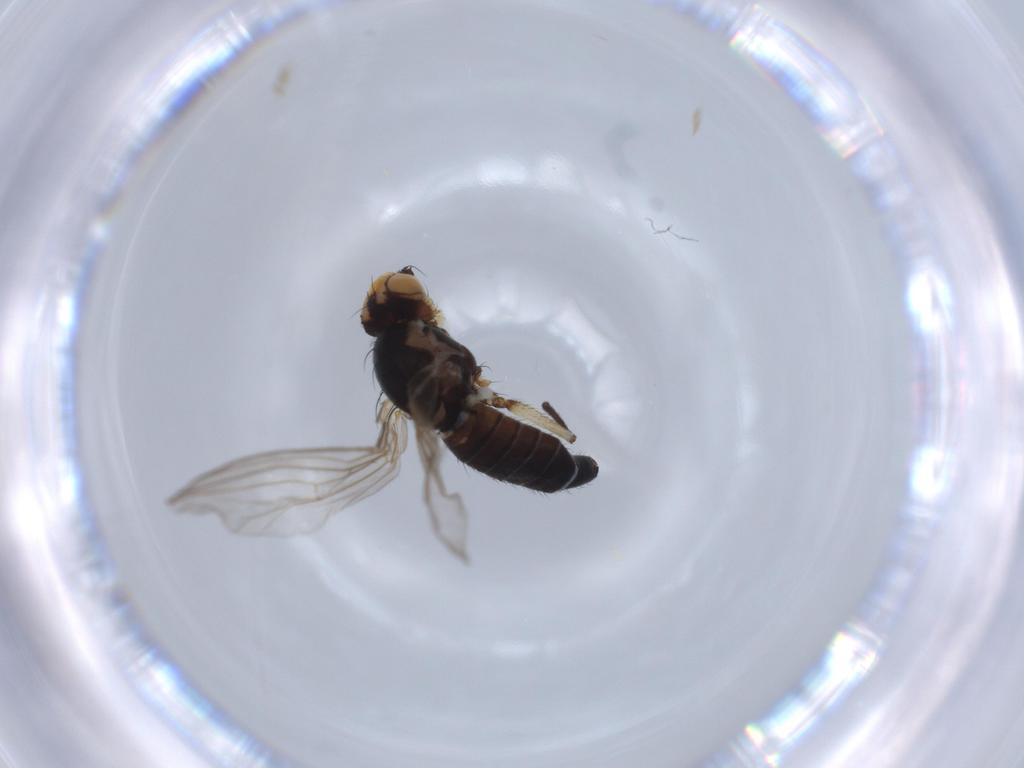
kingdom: Animalia
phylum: Arthropoda
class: Insecta
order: Diptera
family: Agromyzidae
